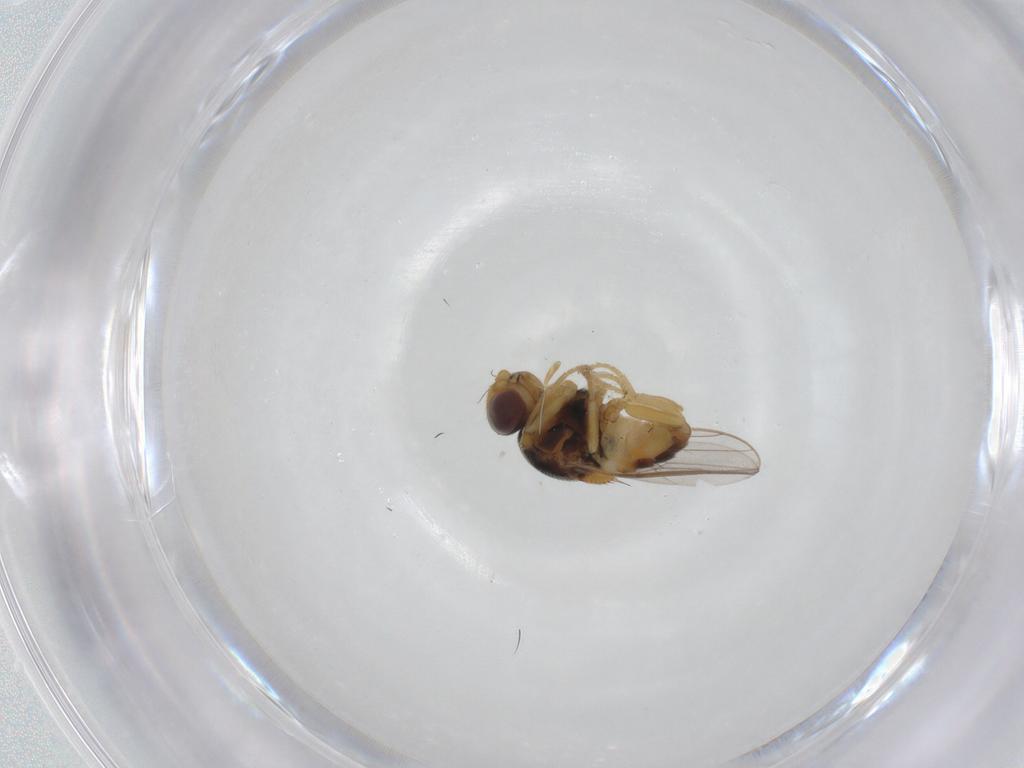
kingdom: Animalia
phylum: Arthropoda
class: Insecta
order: Diptera
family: Chloropidae
